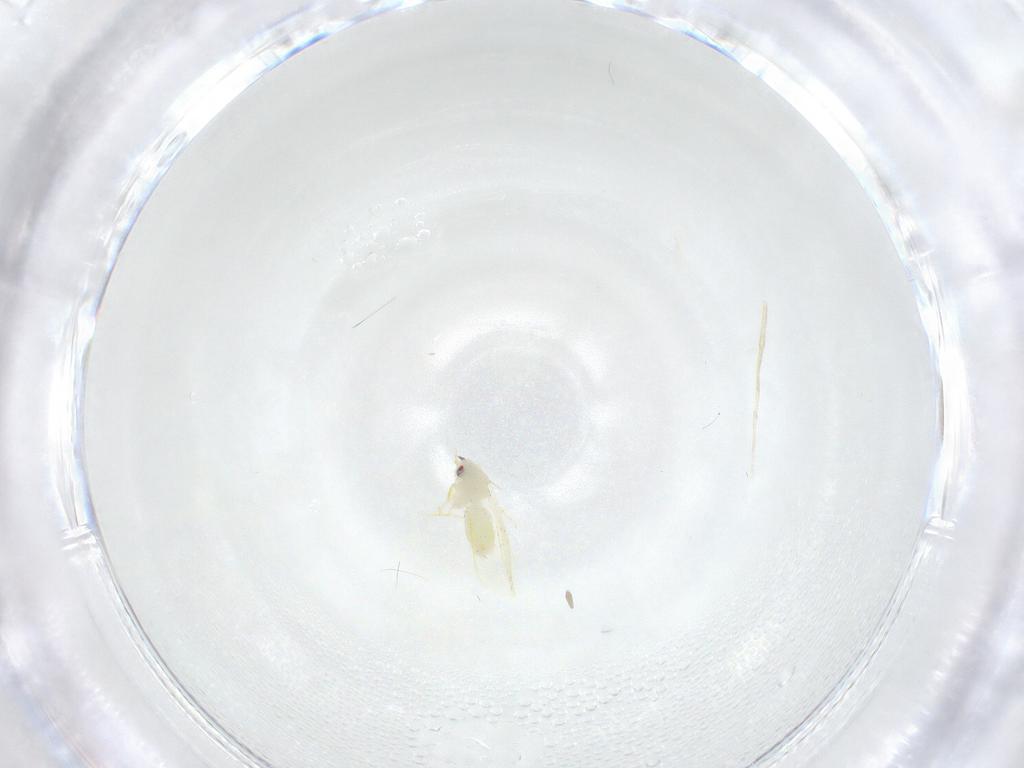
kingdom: Animalia
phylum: Arthropoda
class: Insecta
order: Hemiptera
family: Aleyrodidae
